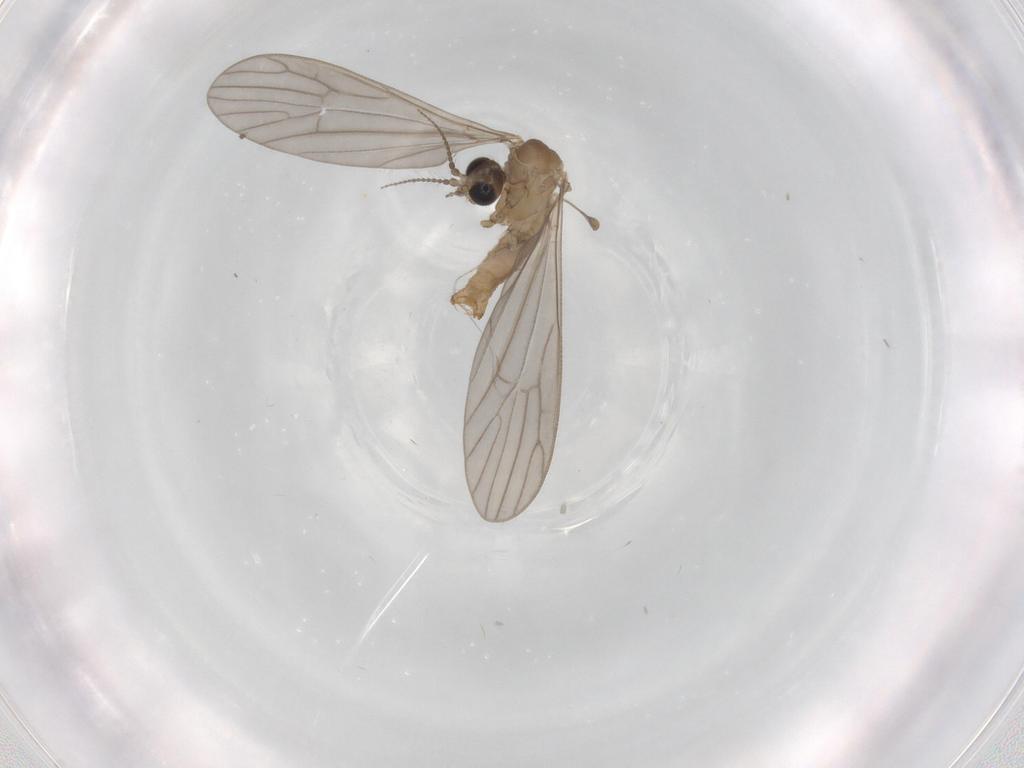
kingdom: Animalia
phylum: Arthropoda
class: Insecta
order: Diptera
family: Limoniidae
